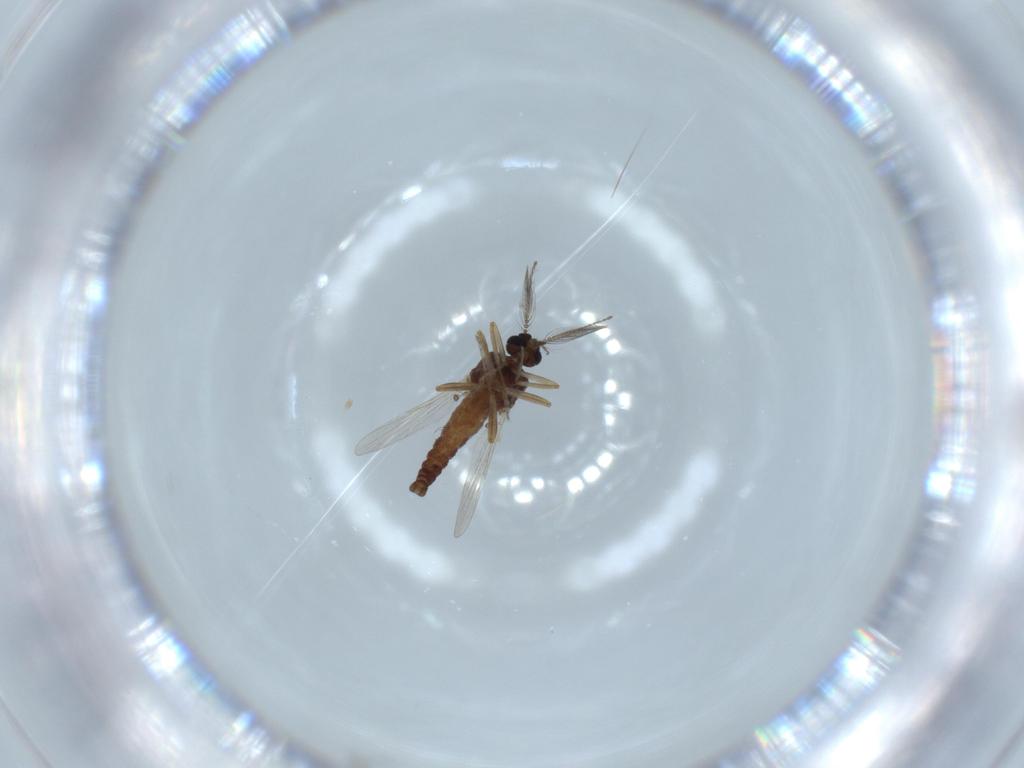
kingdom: Animalia
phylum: Arthropoda
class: Insecta
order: Diptera
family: Ceratopogonidae
